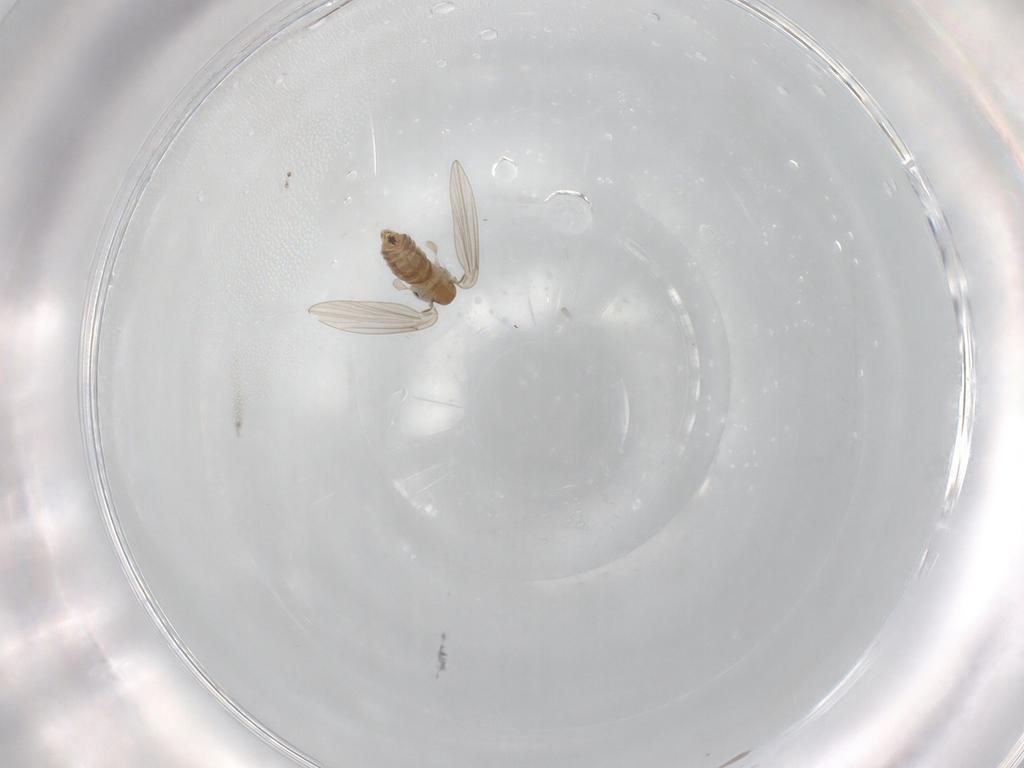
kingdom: Animalia
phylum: Arthropoda
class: Insecta
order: Diptera
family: Psychodidae
